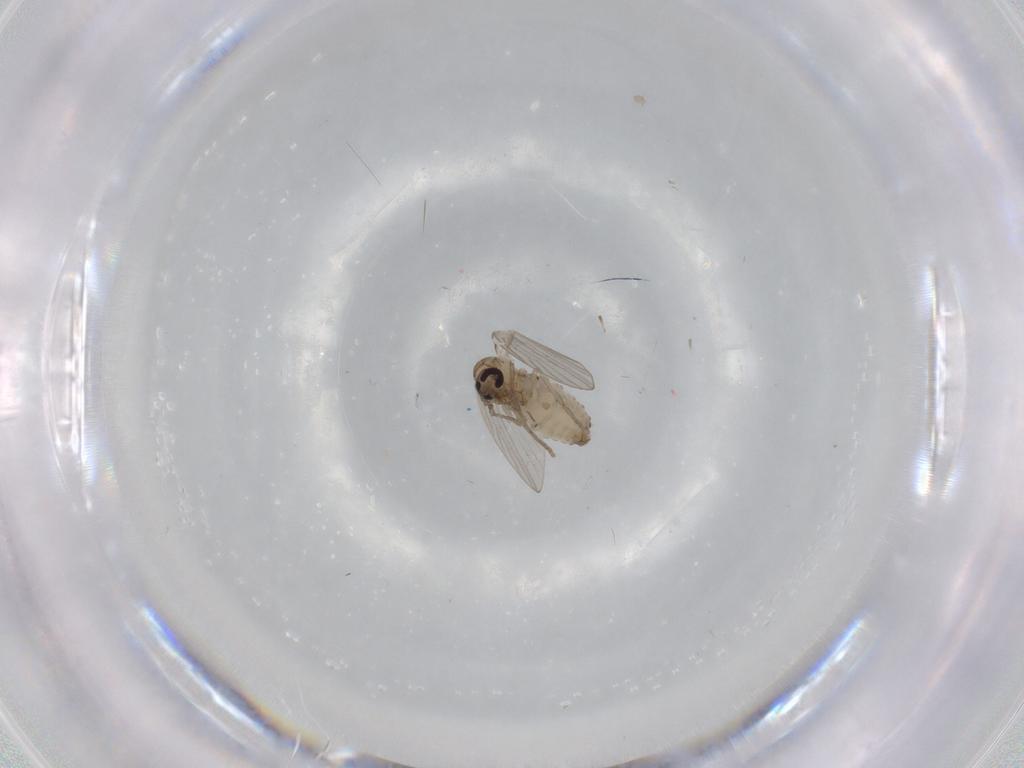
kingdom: Animalia
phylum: Arthropoda
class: Insecta
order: Diptera
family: Psychodidae
